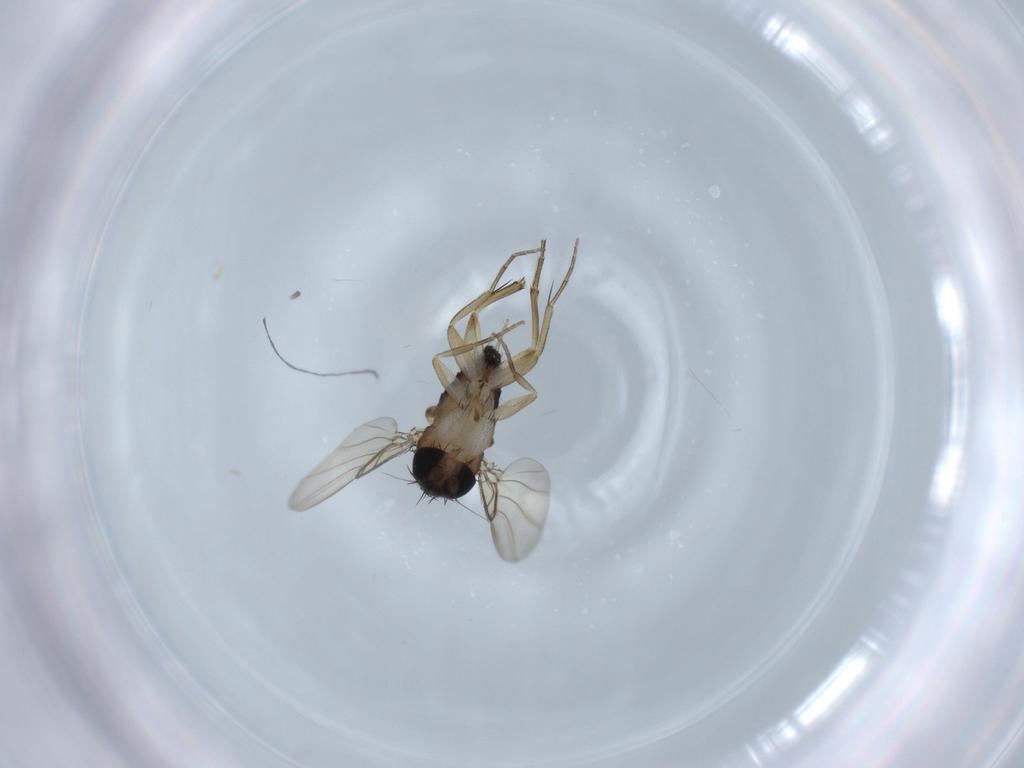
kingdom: Animalia
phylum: Arthropoda
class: Insecta
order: Diptera
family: Phoridae
